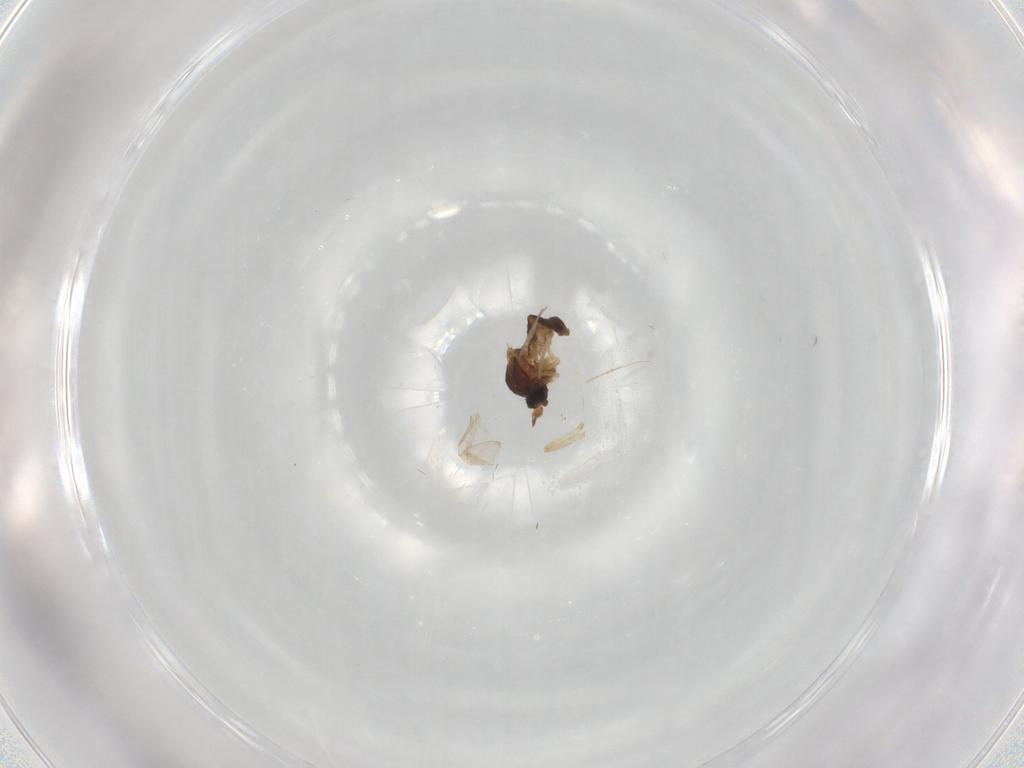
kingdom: Animalia
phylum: Arthropoda
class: Insecta
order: Diptera
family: Ceratopogonidae
